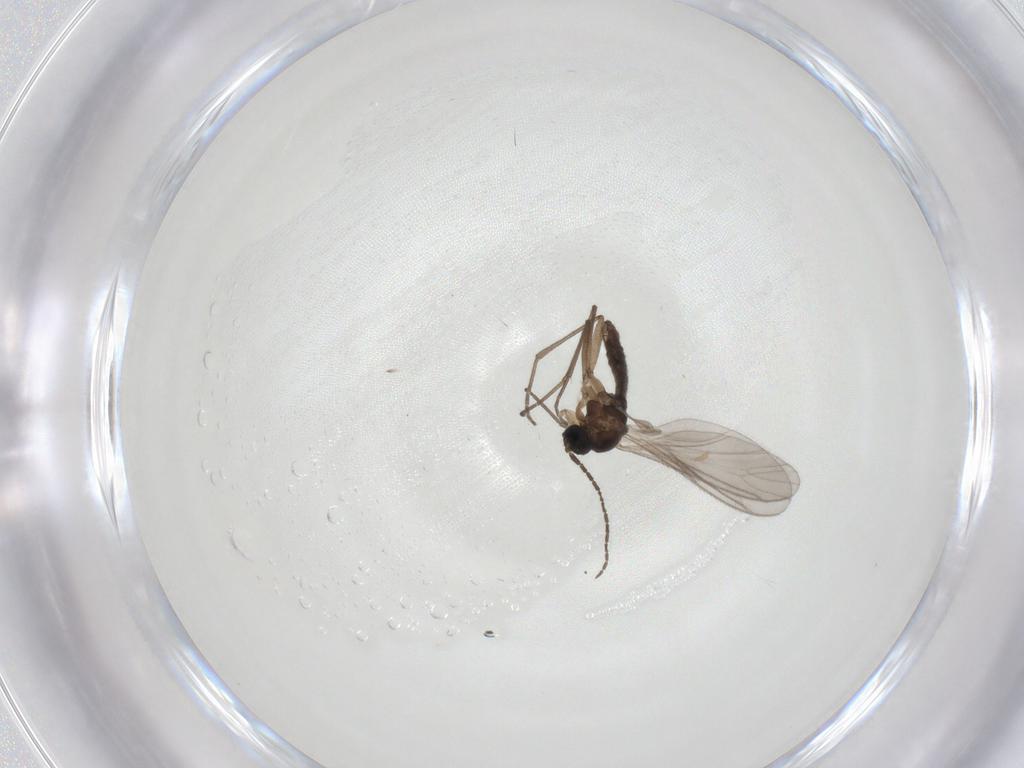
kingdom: Animalia
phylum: Arthropoda
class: Insecta
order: Diptera
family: Sciaridae
